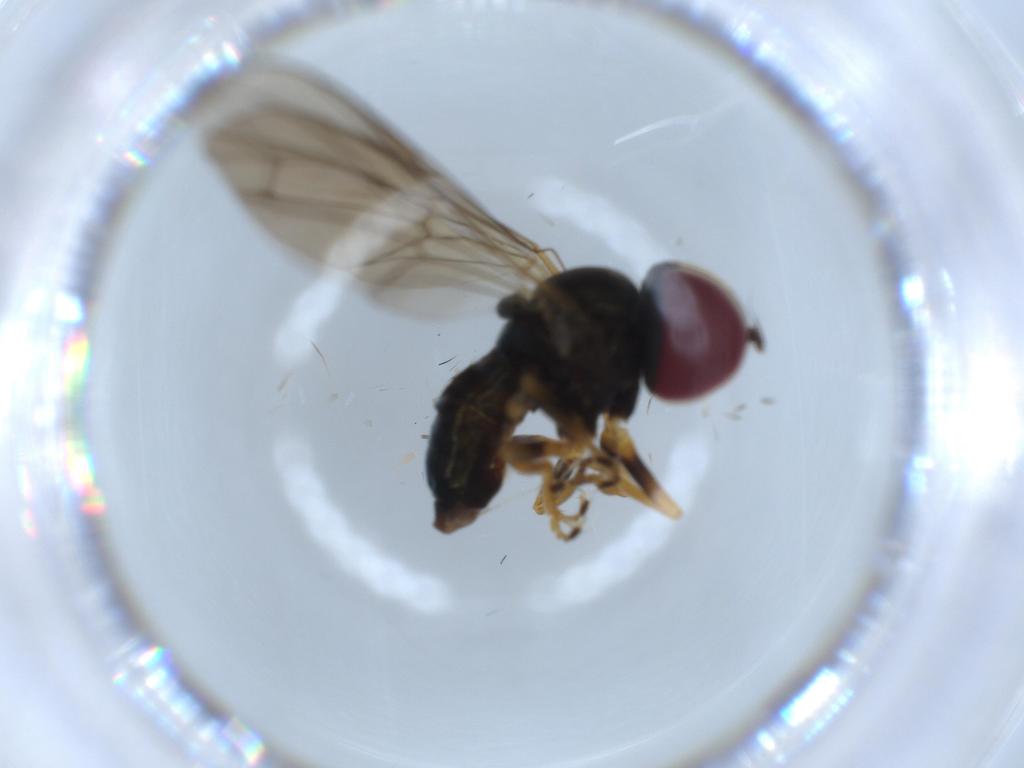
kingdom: Animalia
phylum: Arthropoda
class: Insecta
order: Diptera
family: Pipunculidae
